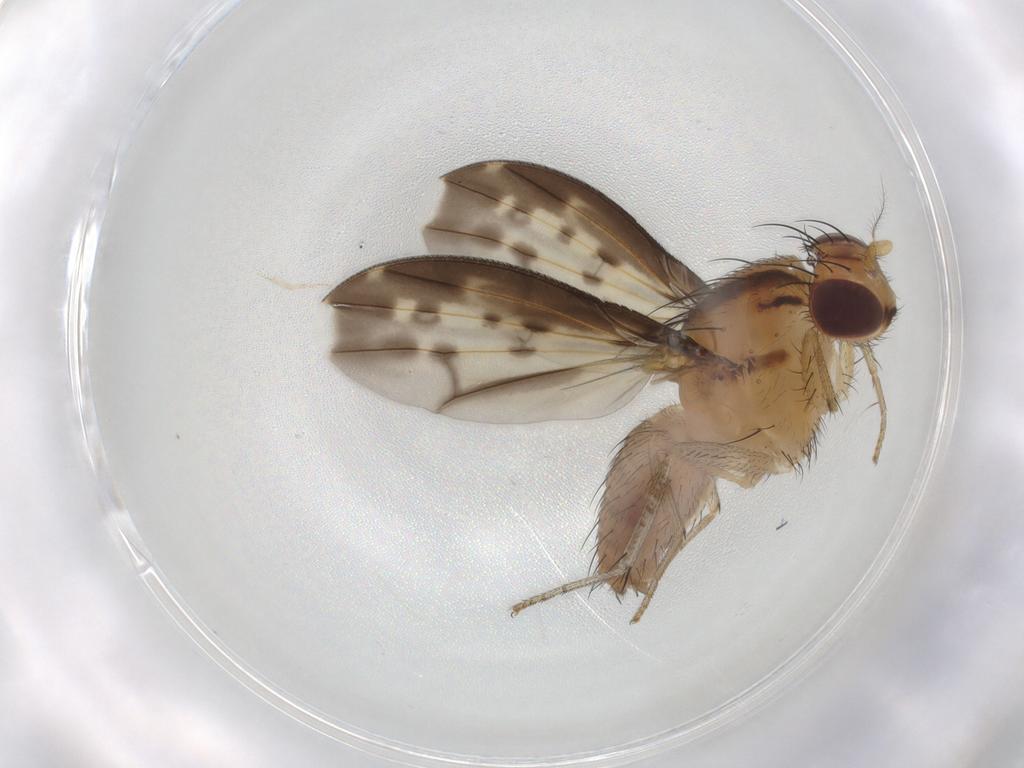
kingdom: Animalia
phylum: Arthropoda
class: Insecta
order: Diptera
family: Lauxaniidae
